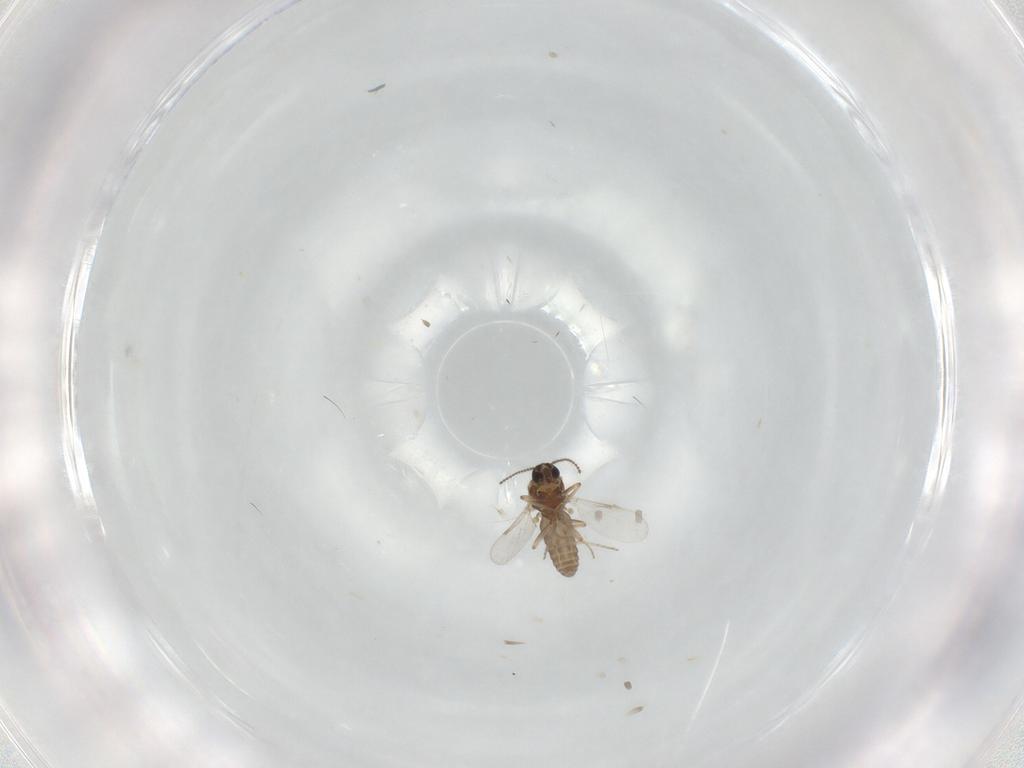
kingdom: Animalia
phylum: Arthropoda
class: Insecta
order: Diptera
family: Ceratopogonidae
